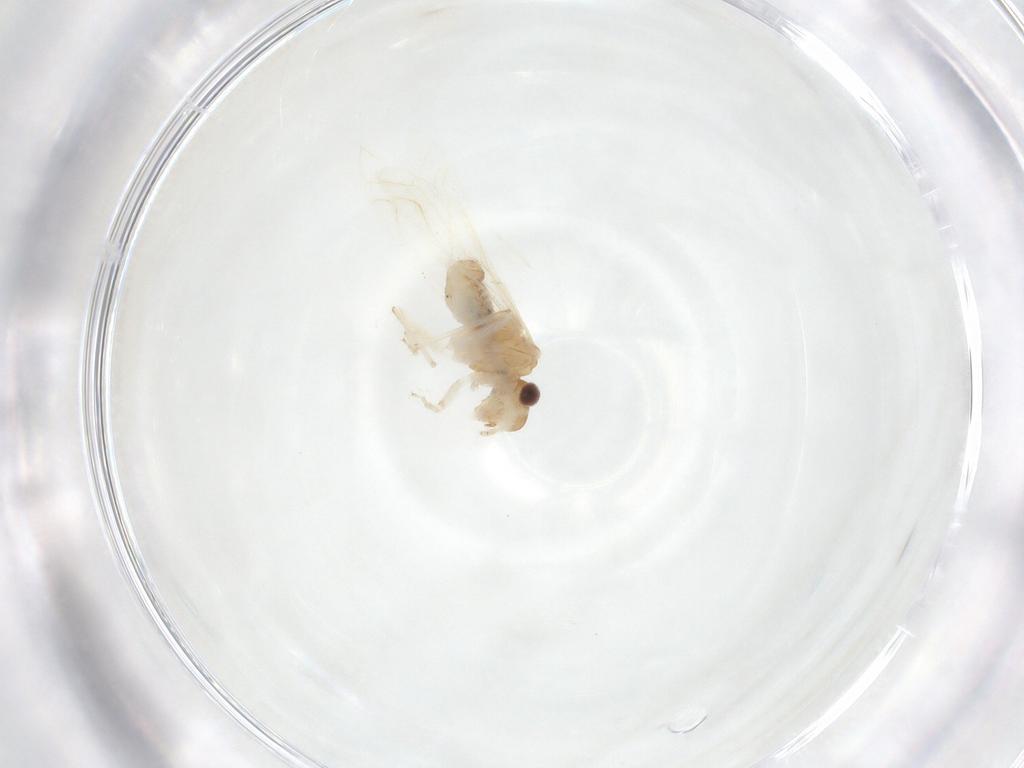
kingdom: Animalia
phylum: Arthropoda
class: Insecta
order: Psocodea
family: Philotarsidae
